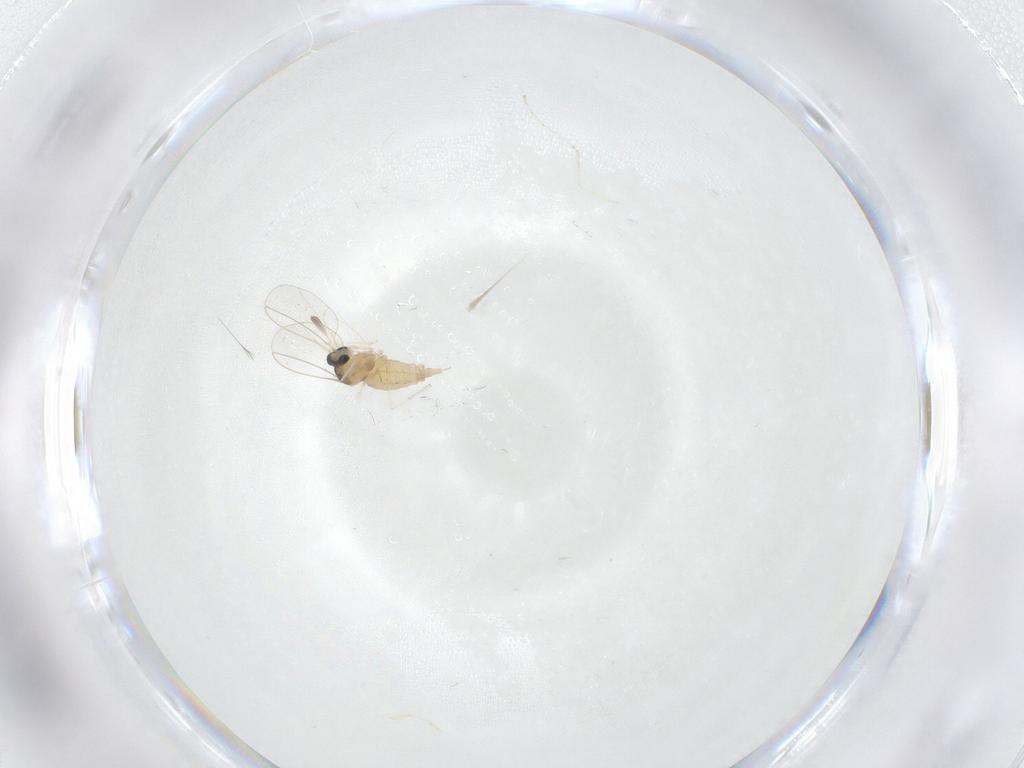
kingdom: Animalia
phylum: Arthropoda
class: Insecta
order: Diptera
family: Cecidomyiidae
